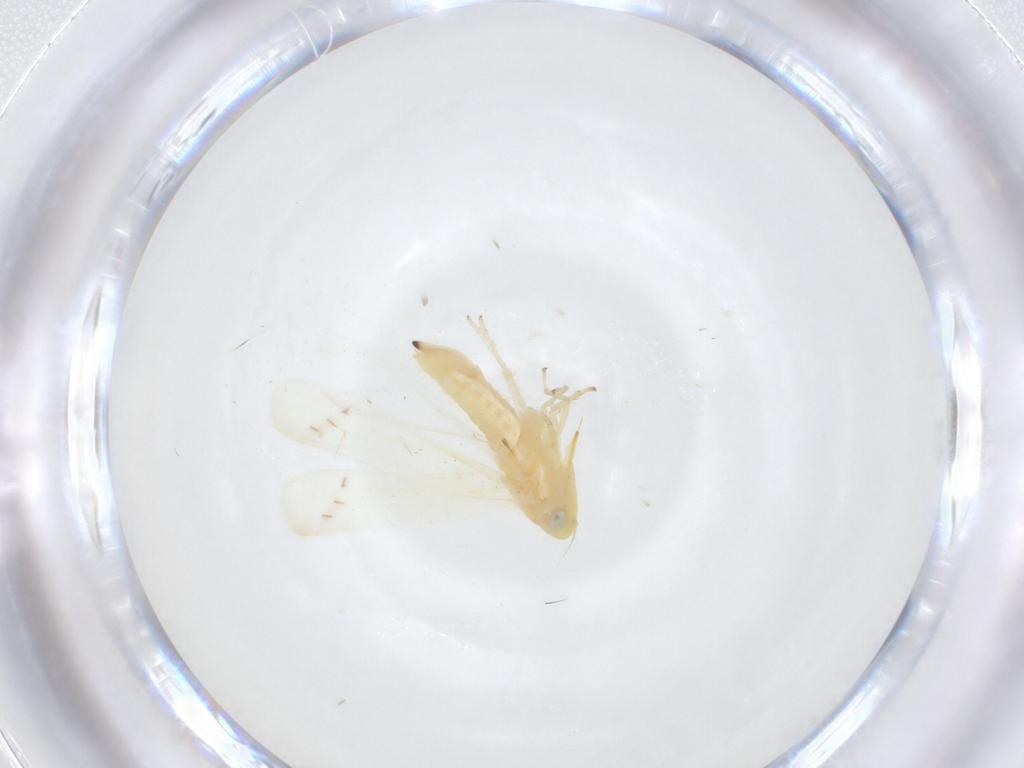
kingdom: Animalia
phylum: Arthropoda
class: Insecta
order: Hemiptera
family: Cicadellidae
